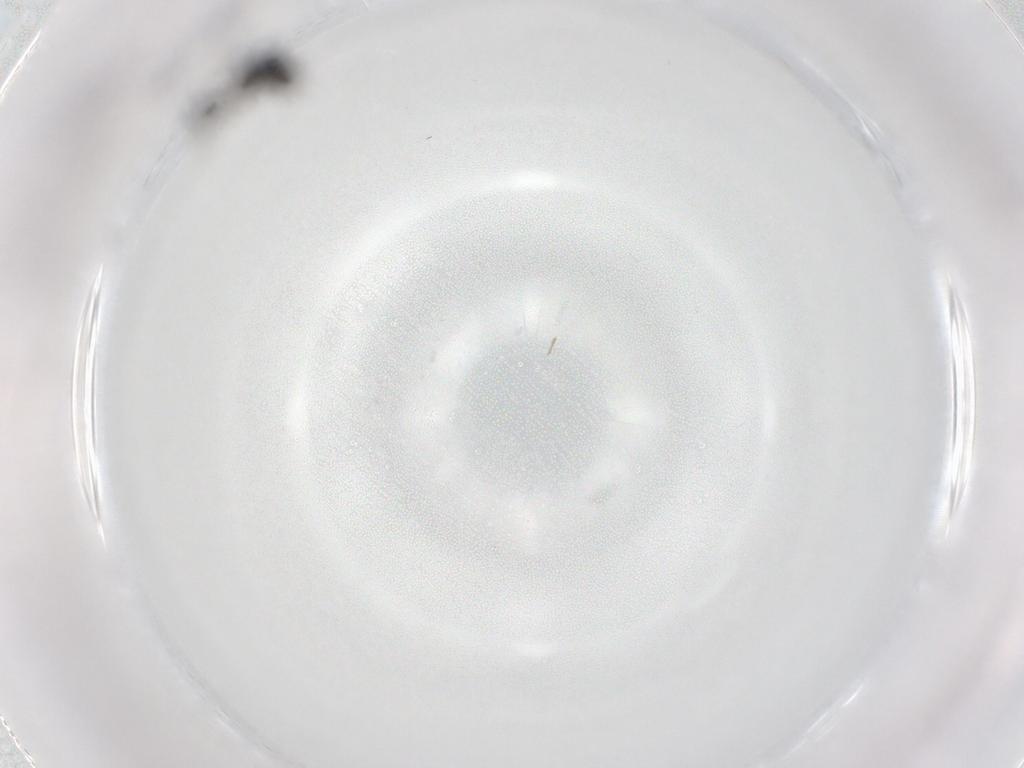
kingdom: Animalia
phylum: Arthropoda
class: Insecta
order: Hymenoptera
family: Platygastridae
